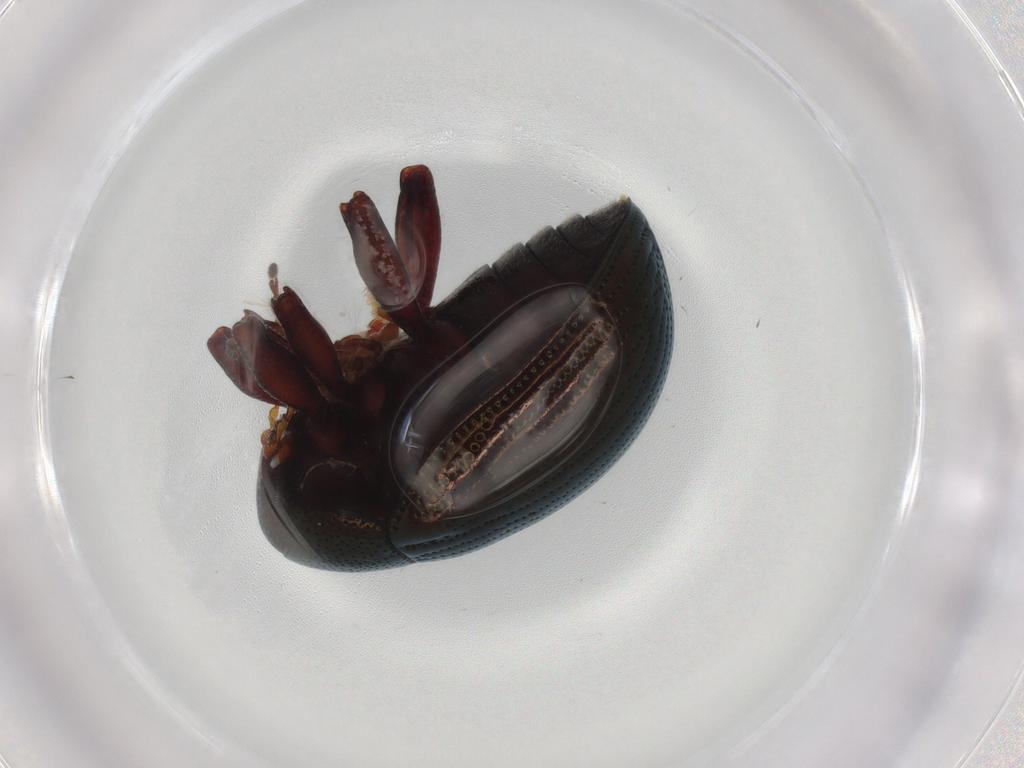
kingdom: Animalia
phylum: Arthropoda
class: Insecta
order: Coleoptera
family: Chrysomelidae
